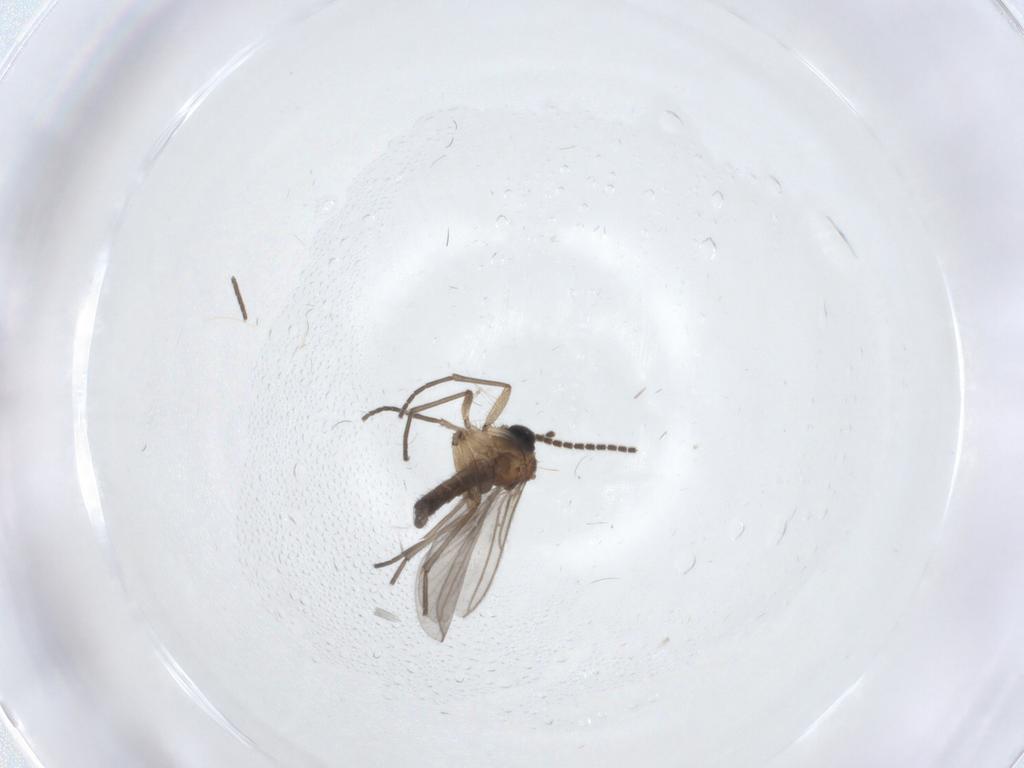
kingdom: Animalia
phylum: Arthropoda
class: Insecta
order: Diptera
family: Sciaridae
